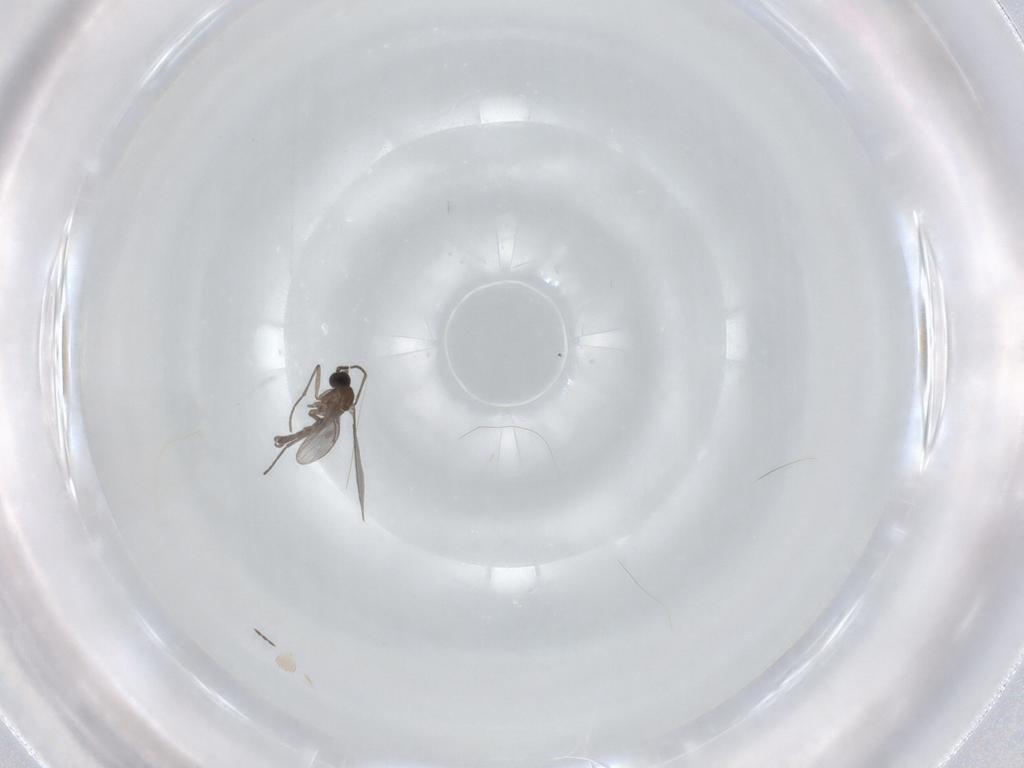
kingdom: Animalia
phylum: Arthropoda
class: Insecta
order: Diptera
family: Sciaridae
